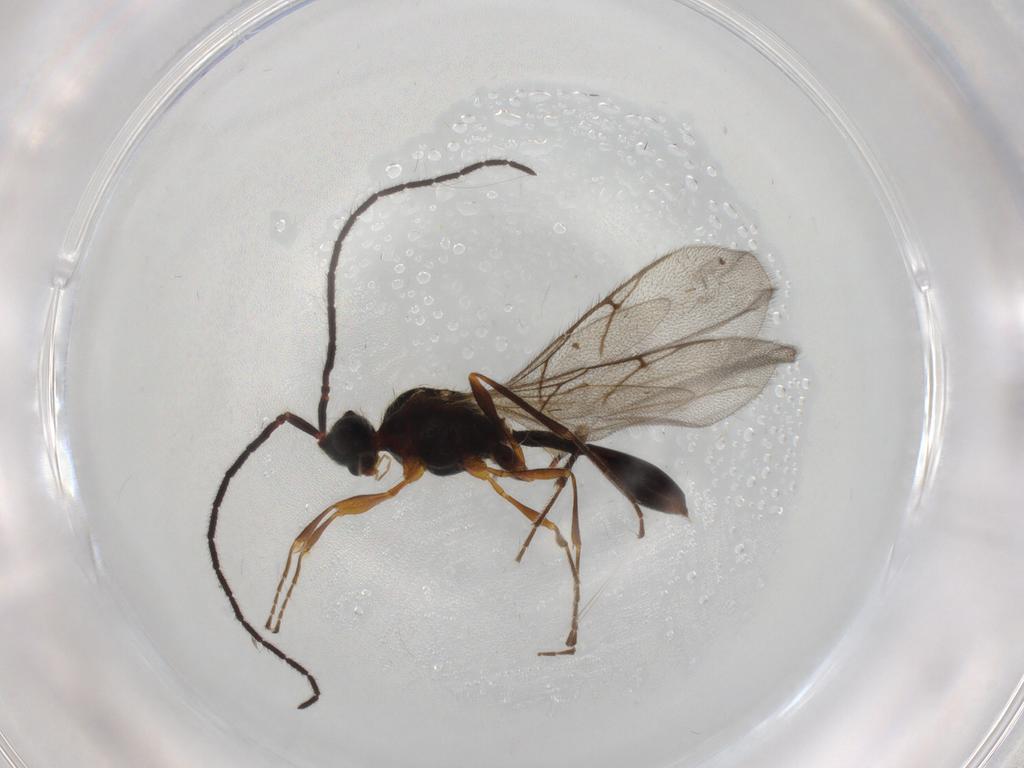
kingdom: Animalia
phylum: Arthropoda
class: Insecta
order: Hymenoptera
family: Diapriidae
